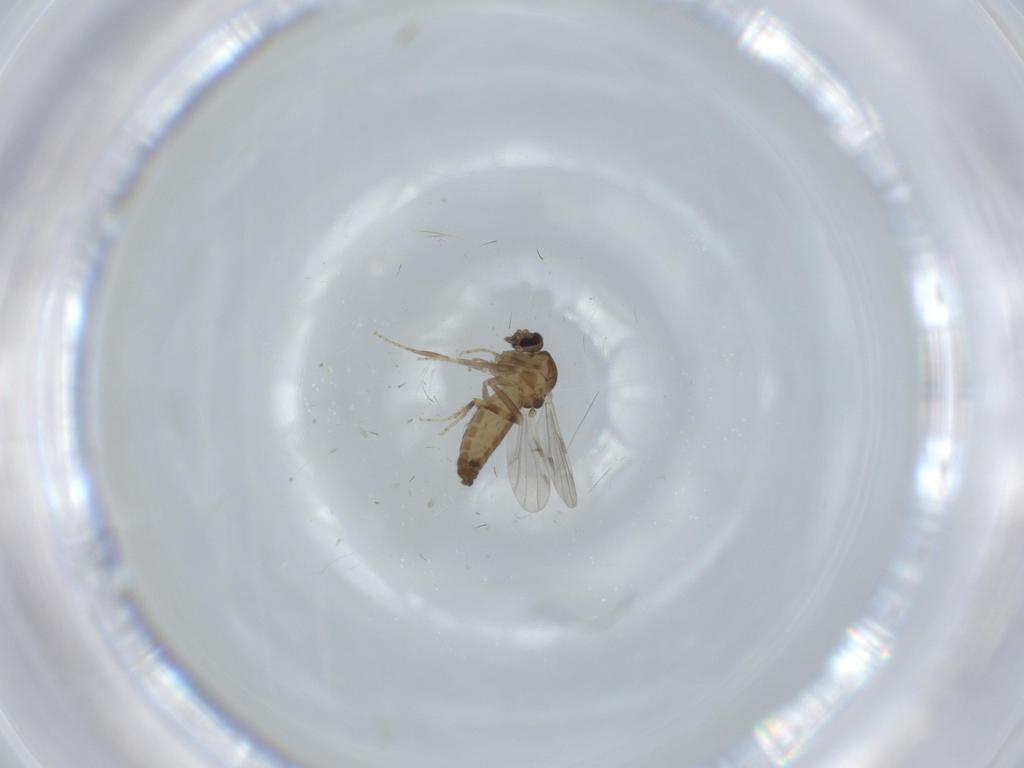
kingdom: Animalia
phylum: Arthropoda
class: Insecta
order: Diptera
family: Ceratopogonidae
